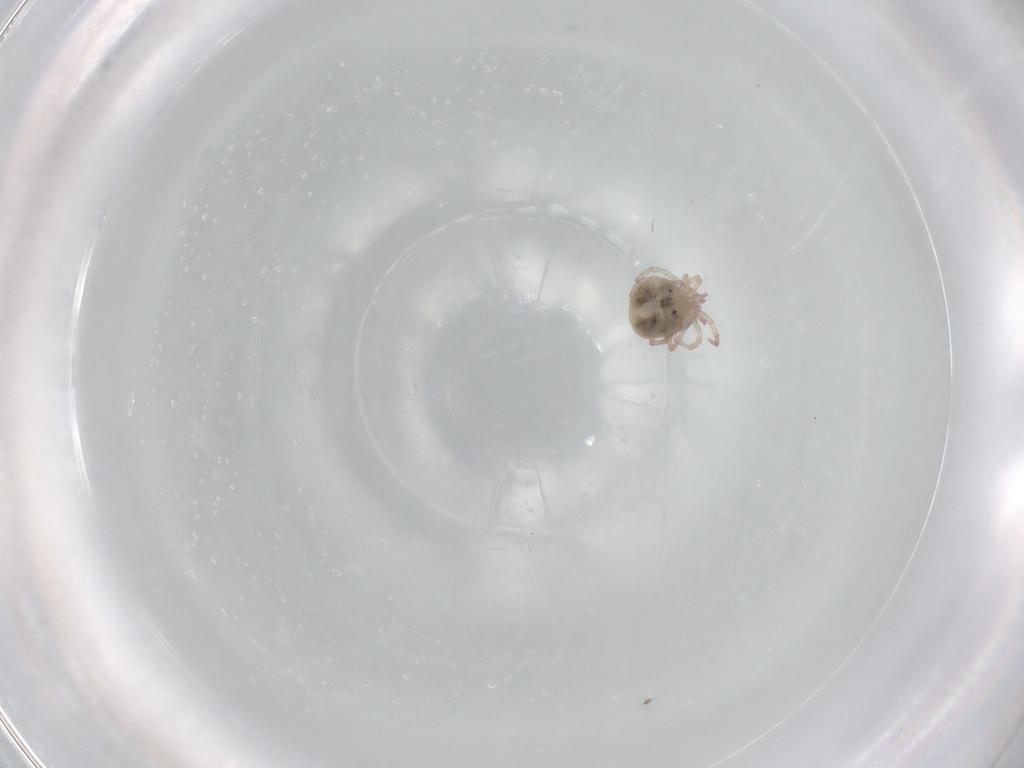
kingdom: Animalia
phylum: Arthropoda
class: Arachnida
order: Trombidiformes
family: Lebertiidae
